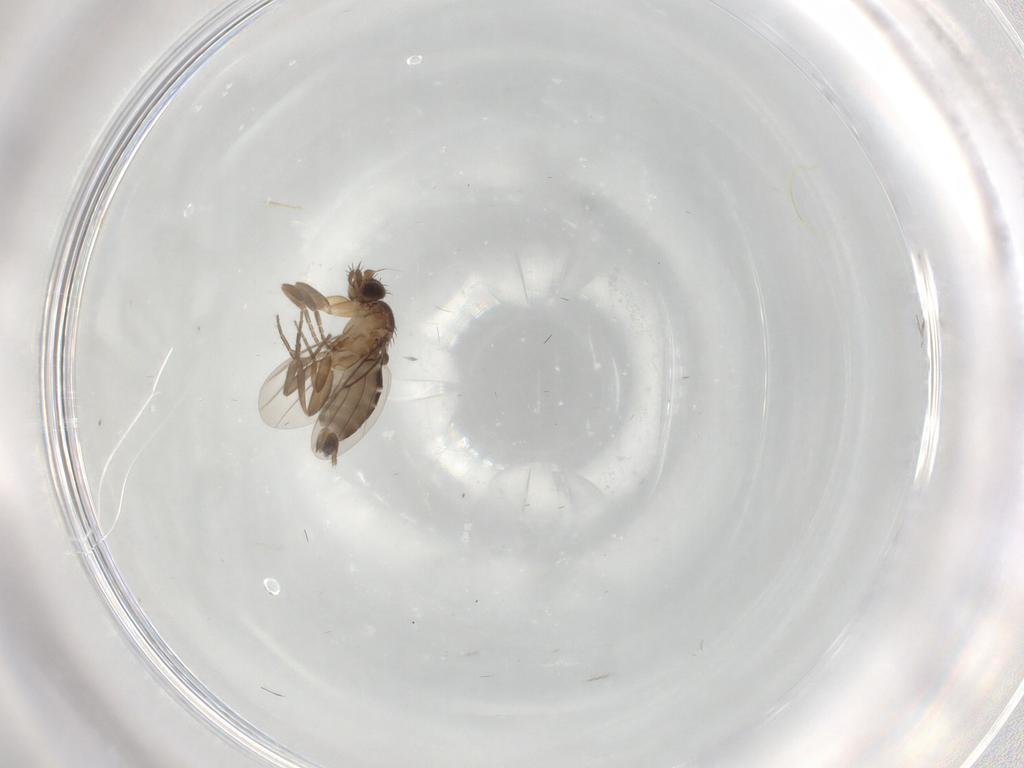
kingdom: Animalia
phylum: Arthropoda
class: Insecta
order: Diptera
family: Phoridae
